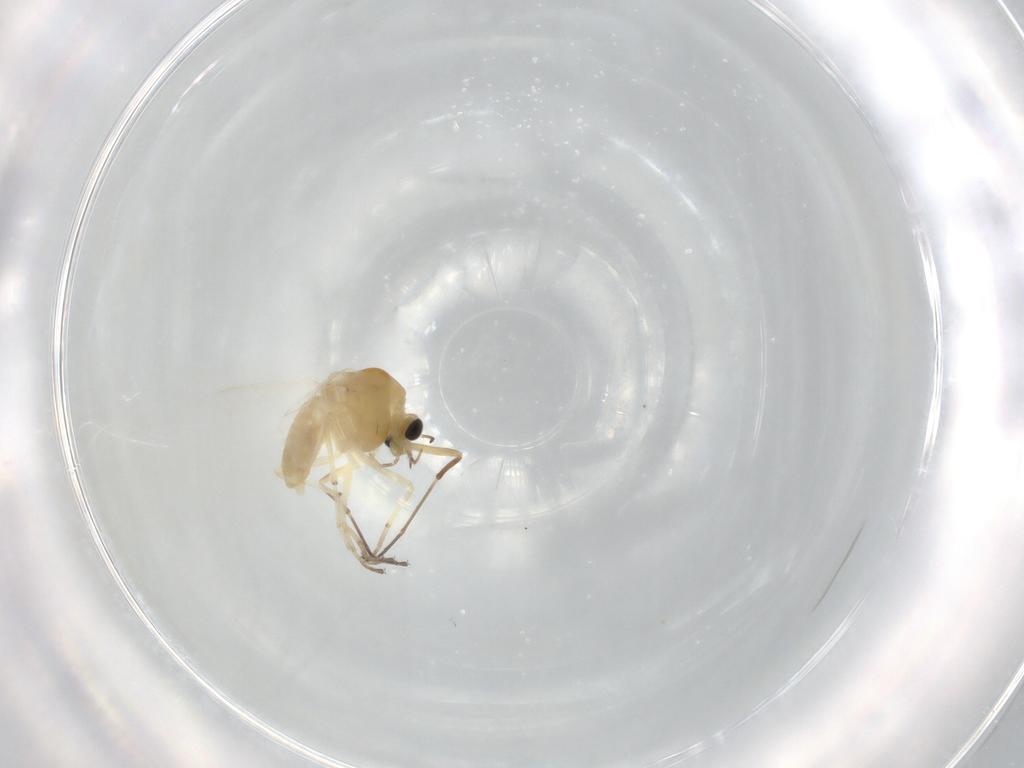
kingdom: Animalia
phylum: Arthropoda
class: Insecta
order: Diptera
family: Chironomidae
